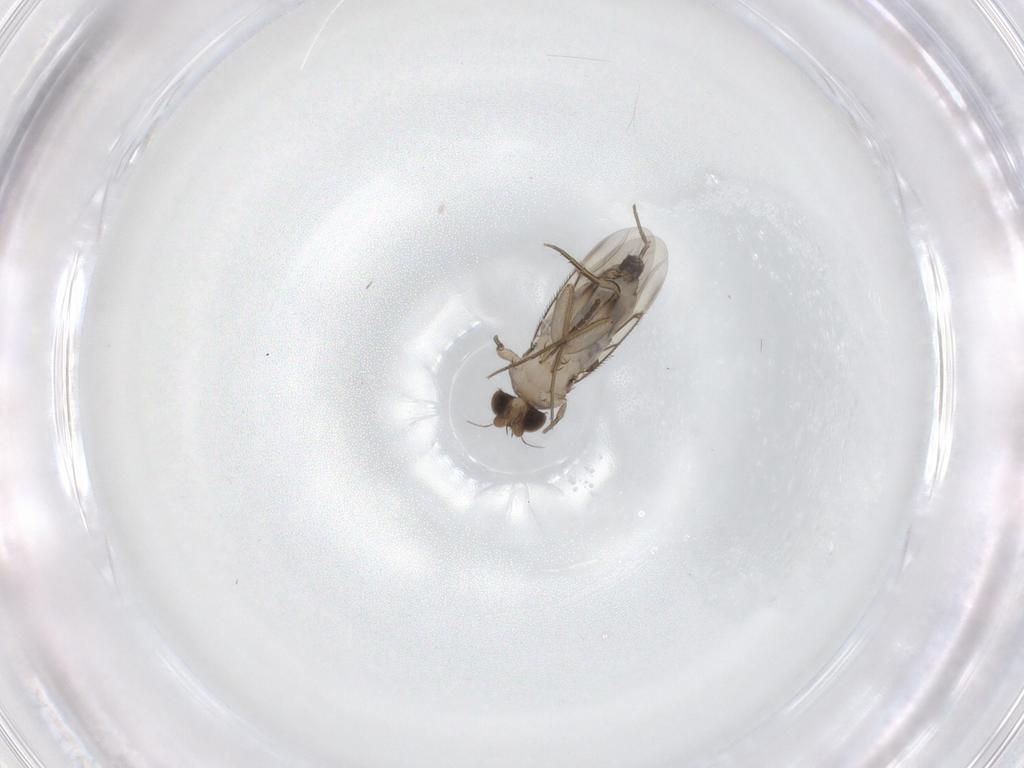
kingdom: Animalia
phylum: Arthropoda
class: Insecta
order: Diptera
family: Phoridae
